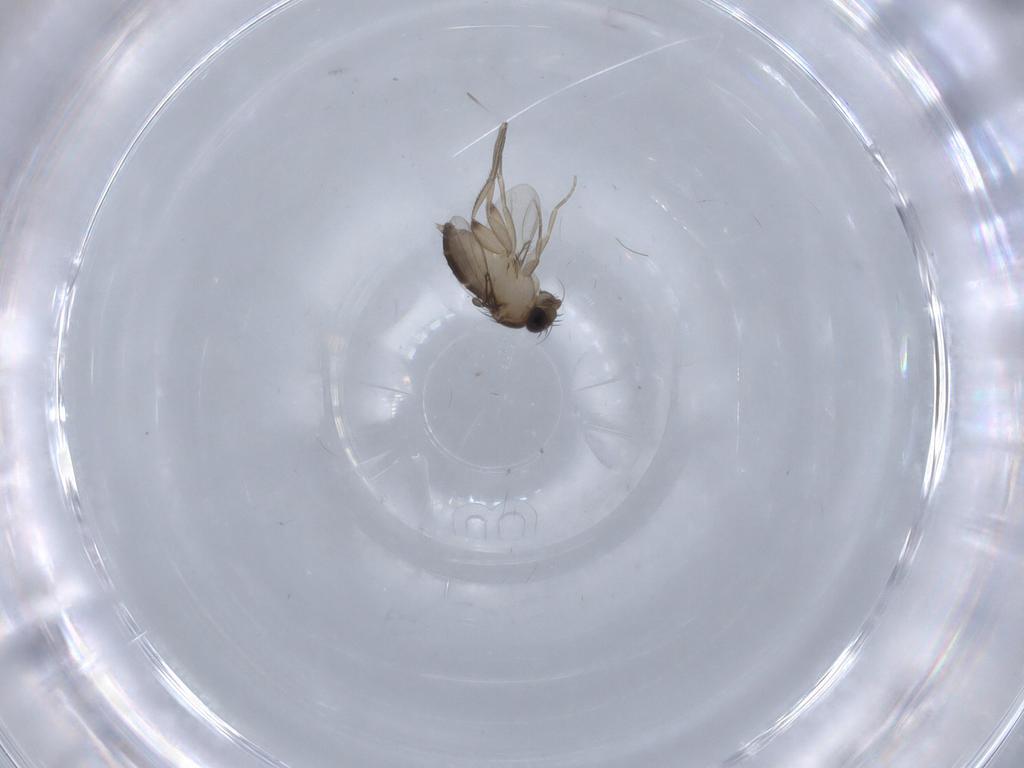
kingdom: Animalia
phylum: Arthropoda
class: Insecta
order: Diptera
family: Phoridae
